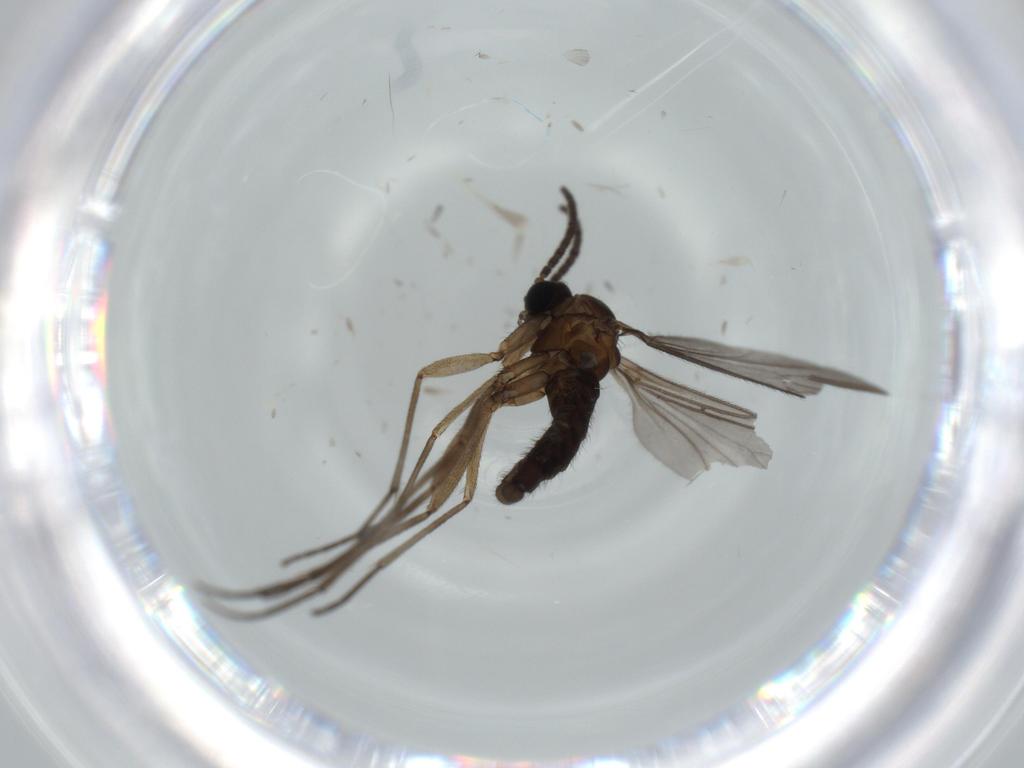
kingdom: Animalia
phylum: Arthropoda
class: Insecta
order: Diptera
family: Sciaridae
